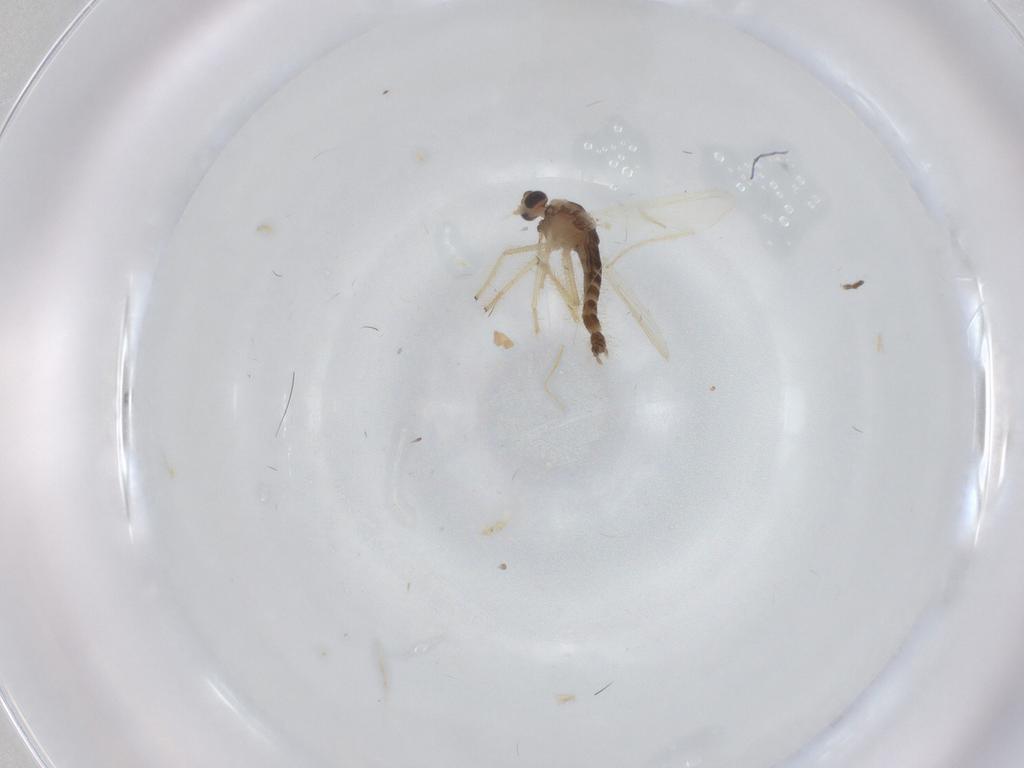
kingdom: Animalia
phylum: Arthropoda
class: Insecta
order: Diptera
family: Chironomidae
